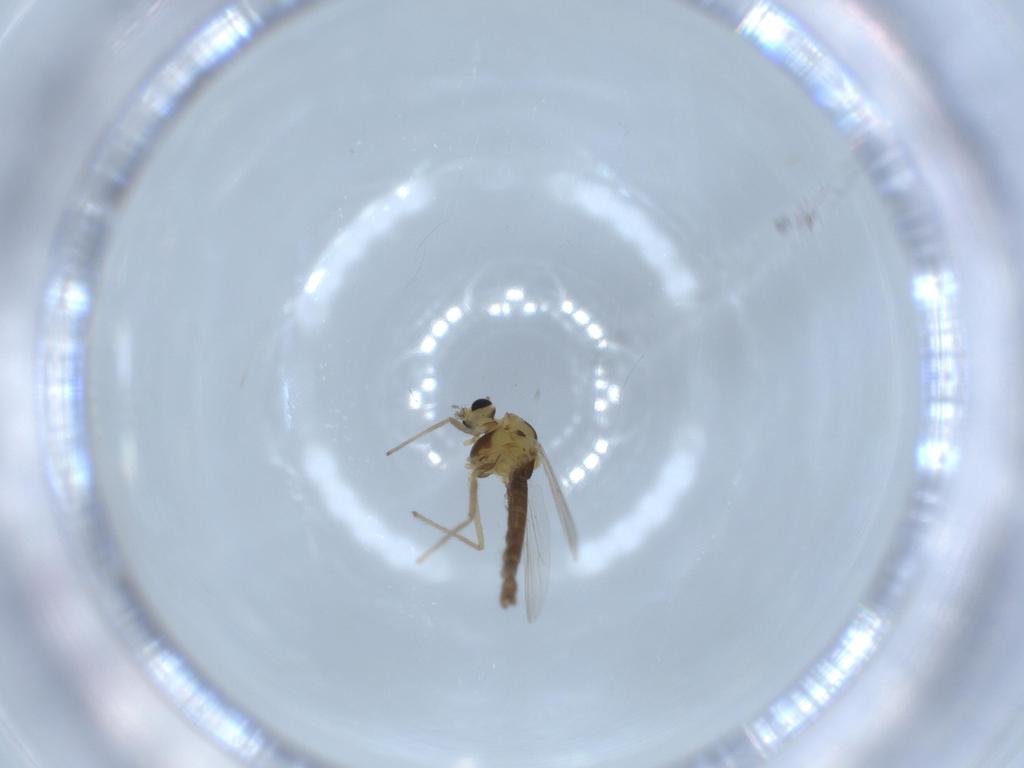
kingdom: Animalia
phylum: Arthropoda
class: Insecta
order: Diptera
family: Chironomidae
